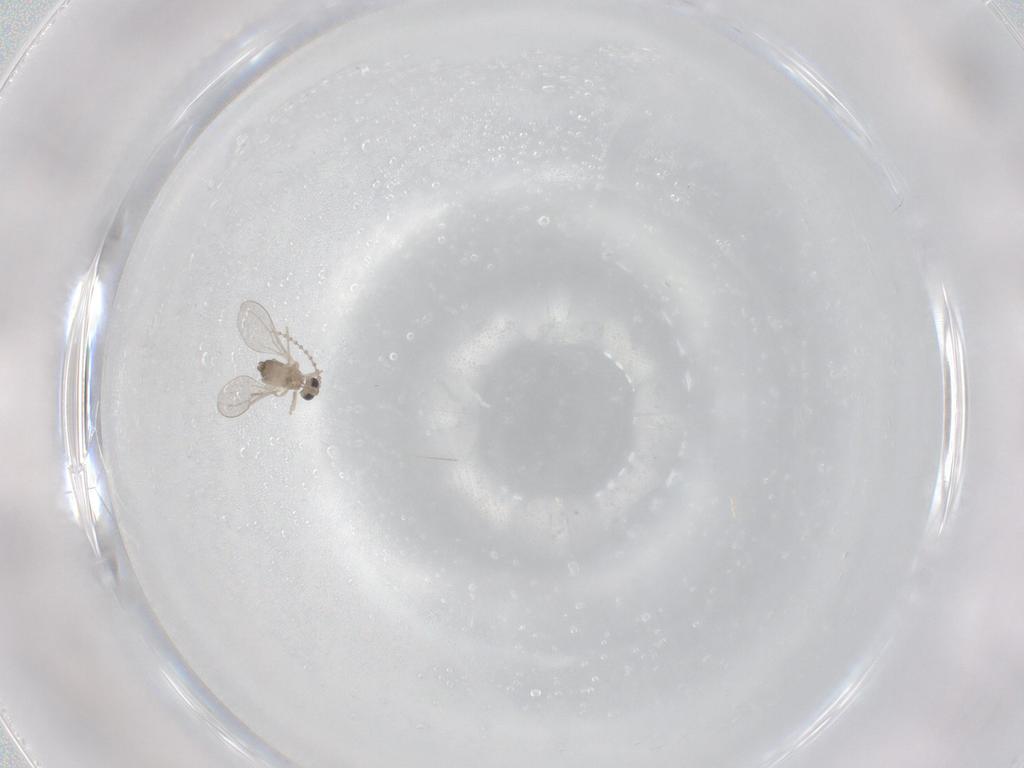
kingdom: Animalia
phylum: Arthropoda
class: Insecta
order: Diptera
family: Cecidomyiidae
